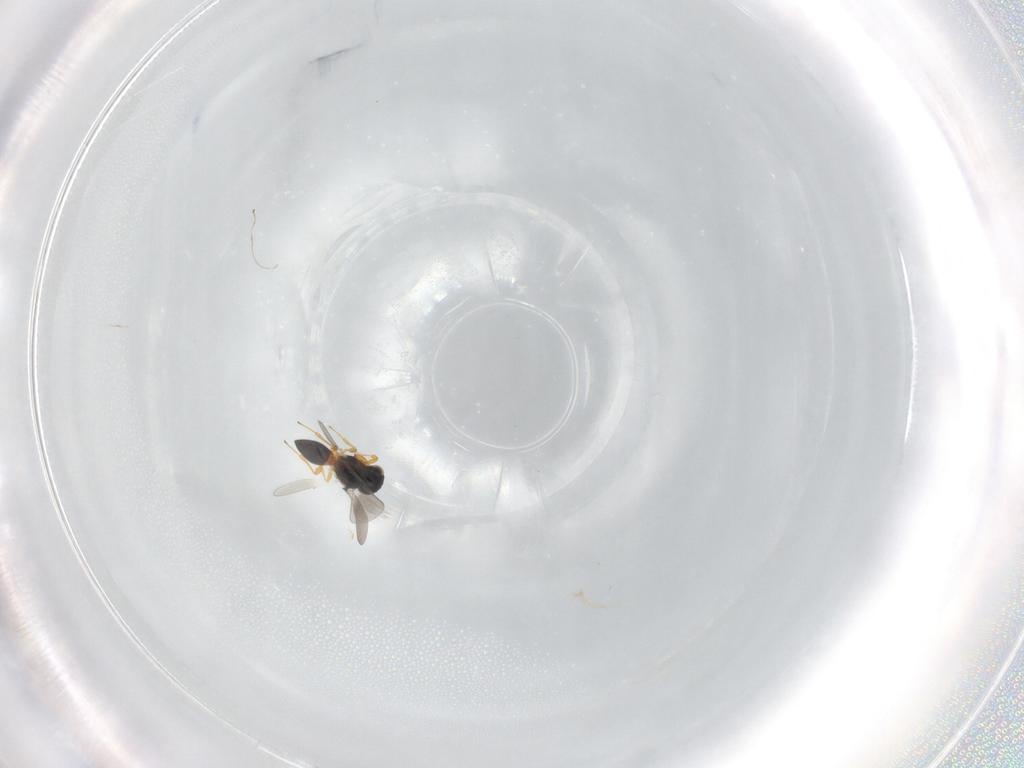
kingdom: Animalia
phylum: Arthropoda
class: Insecta
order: Hymenoptera
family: Platygastridae
